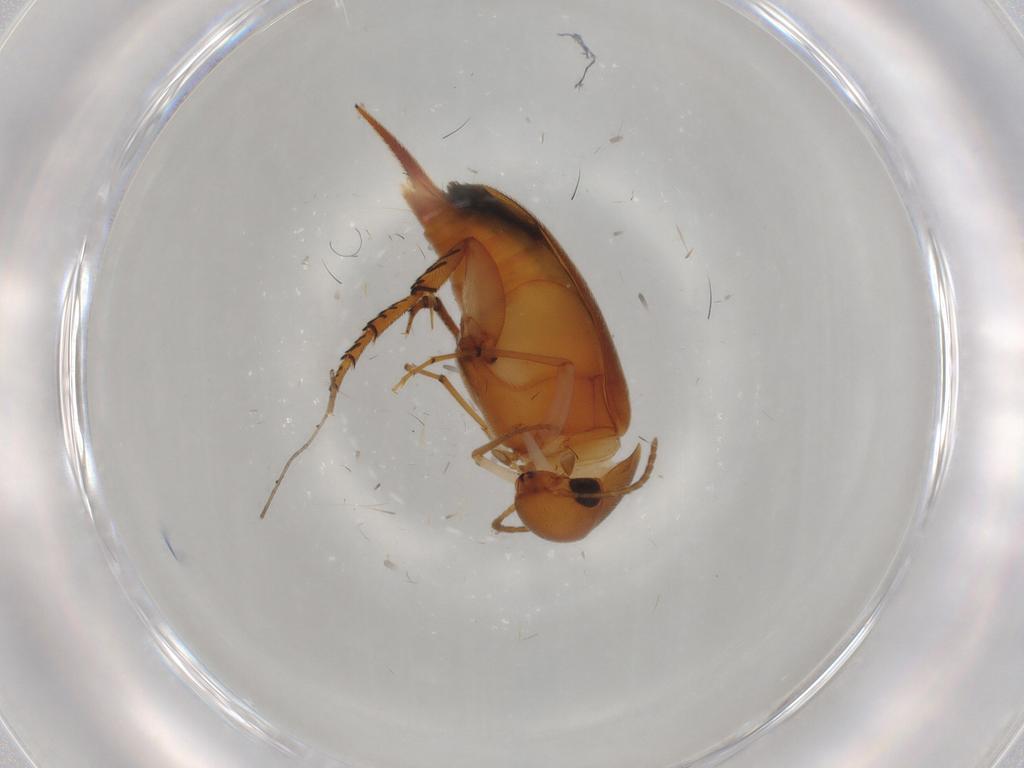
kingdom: Animalia
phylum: Arthropoda
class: Insecta
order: Coleoptera
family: Mordellidae
